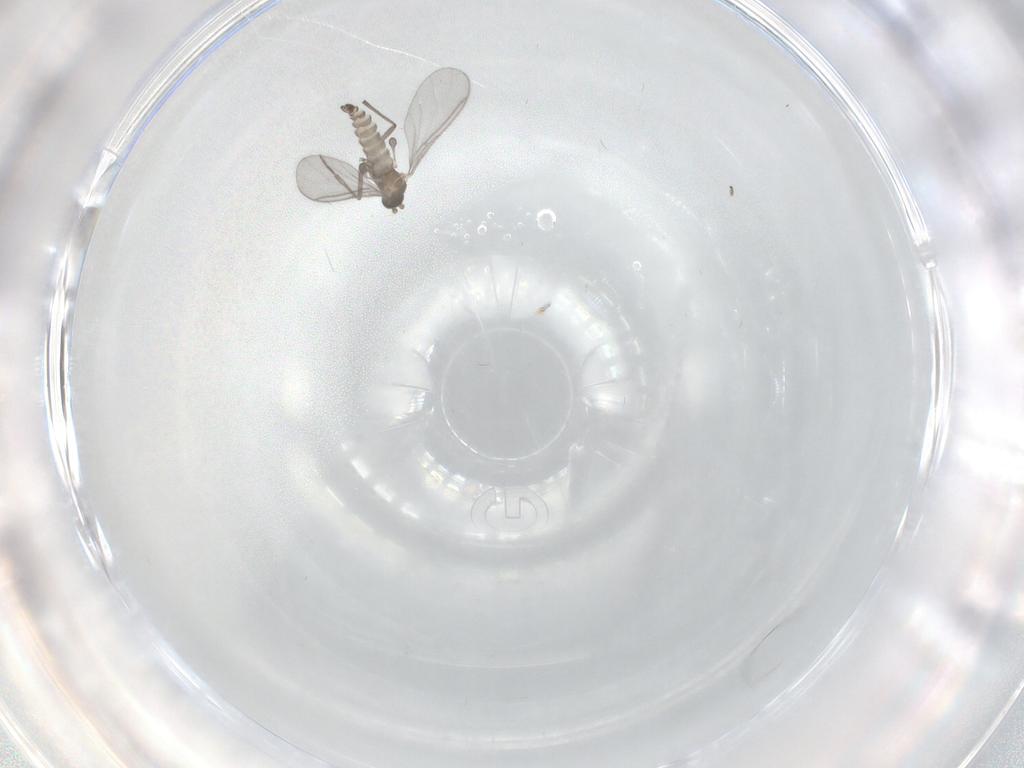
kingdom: Animalia
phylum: Arthropoda
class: Insecta
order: Diptera
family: Sciaridae
